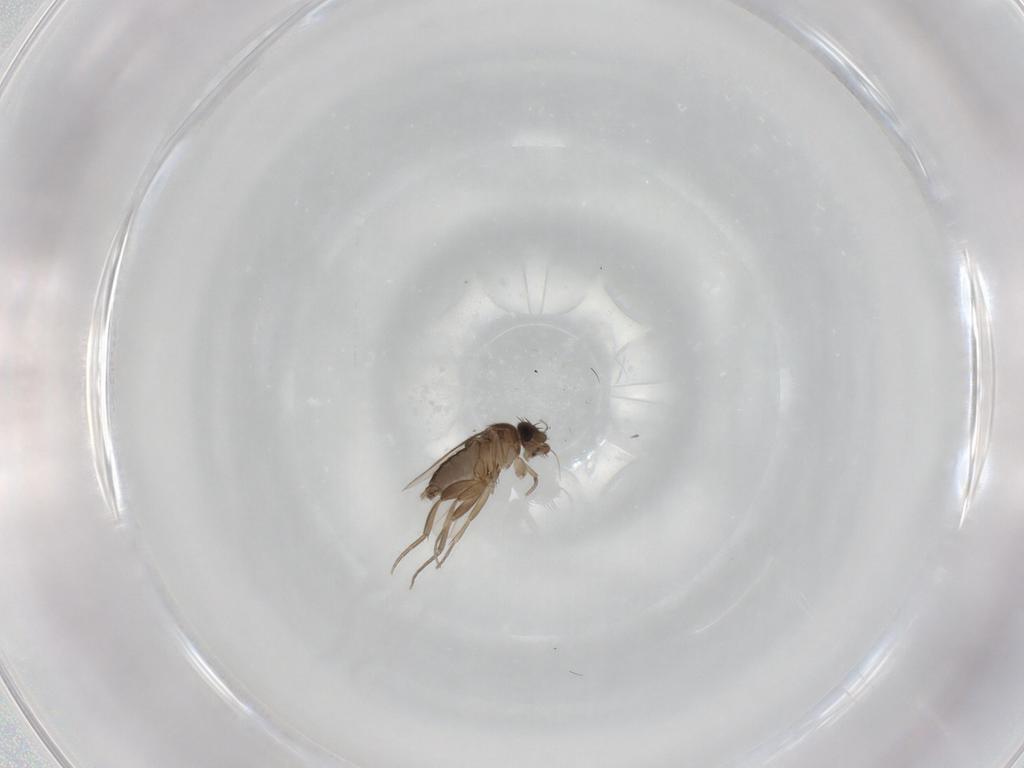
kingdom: Animalia
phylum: Arthropoda
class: Insecta
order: Diptera
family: Phoridae
